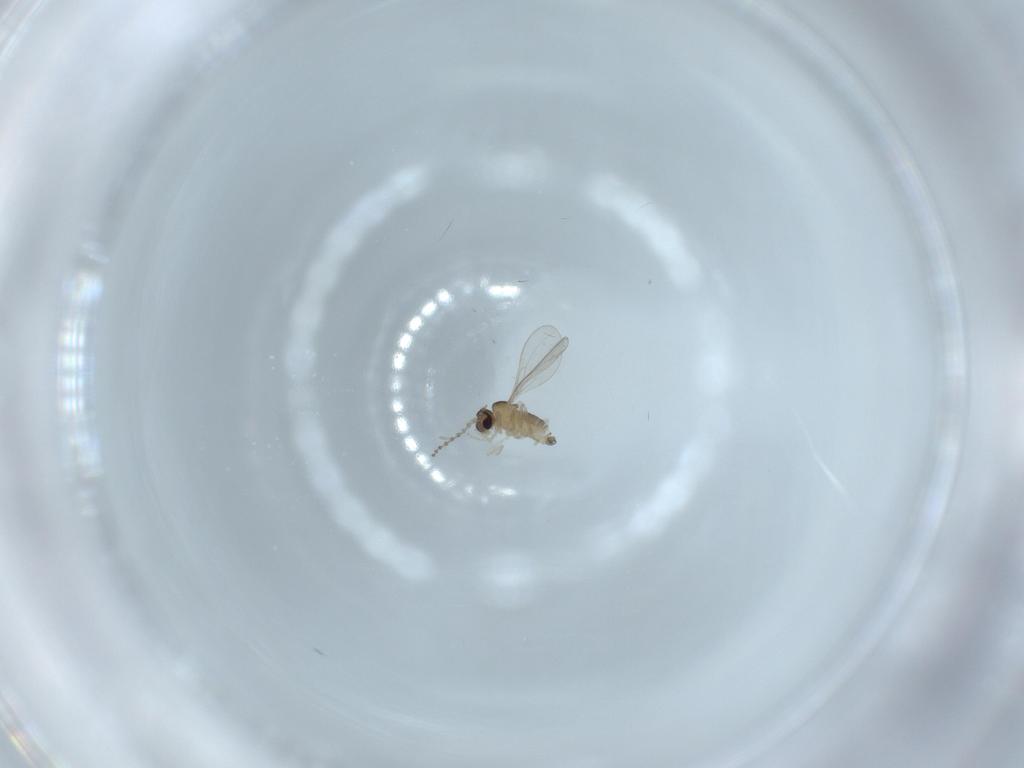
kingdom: Animalia
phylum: Arthropoda
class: Insecta
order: Diptera
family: Cecidomyiidae
